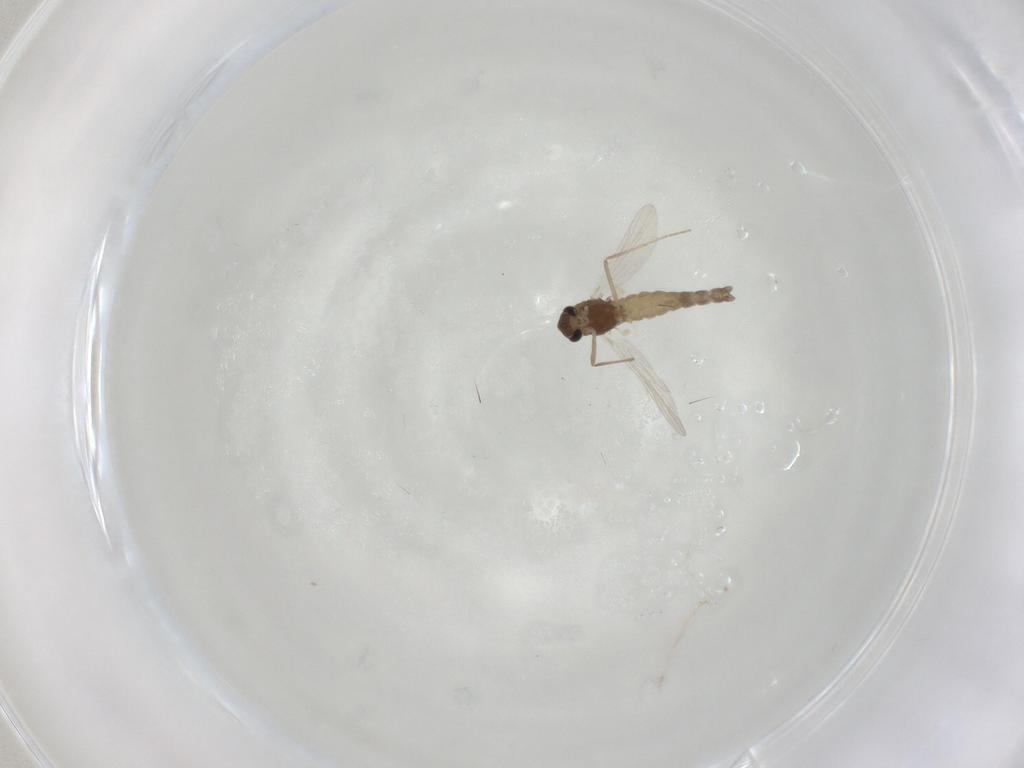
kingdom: Animalia
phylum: Arthropoda
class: Insecta
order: Diptera
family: Chironomidae
